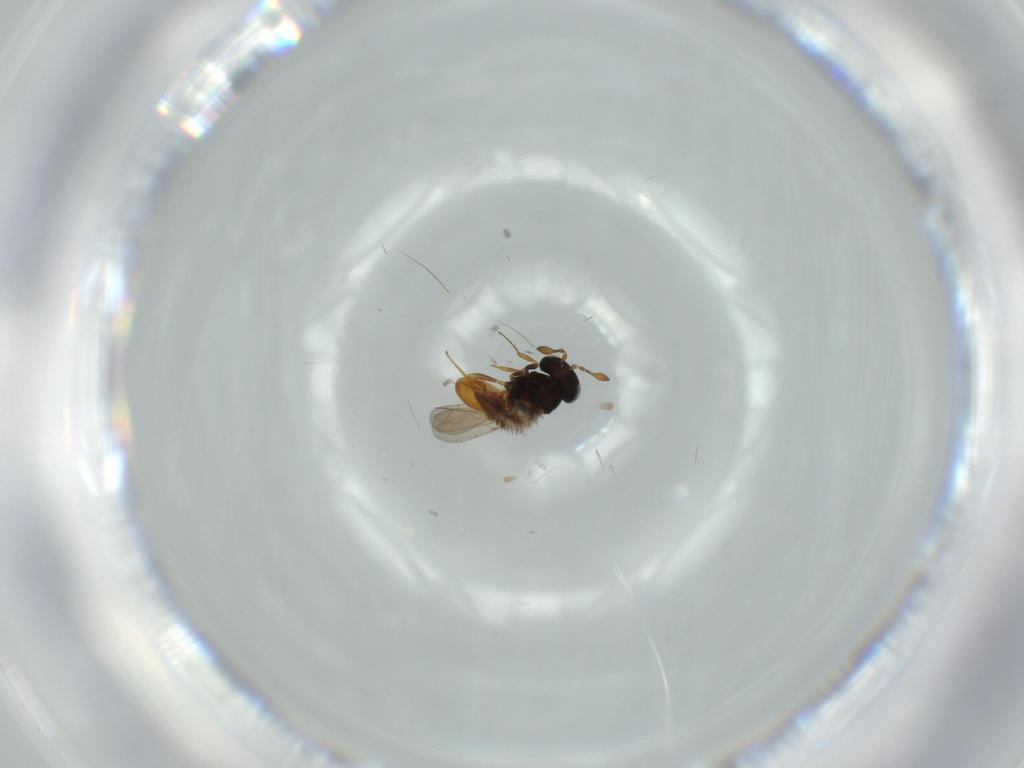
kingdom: Animalia
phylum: Arthropoda
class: Insecta
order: Hymenoptera
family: Scelionidae
